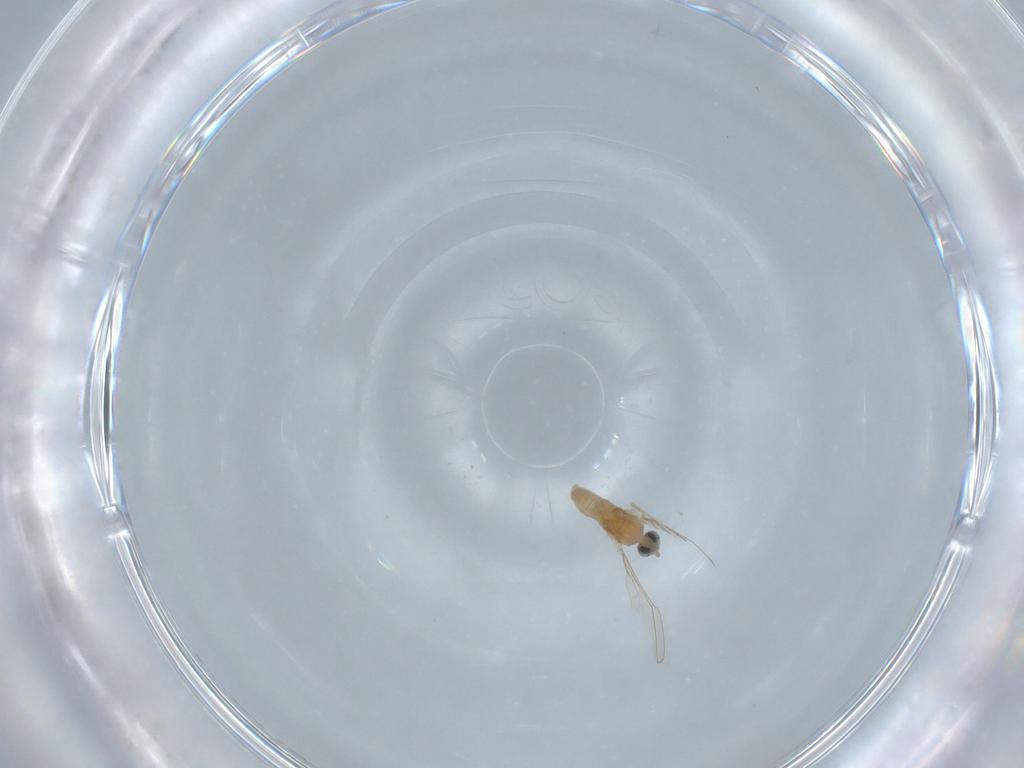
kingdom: Animalia
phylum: Arthropoda
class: Insecta
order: Diptera
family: Cecidomyiidae
